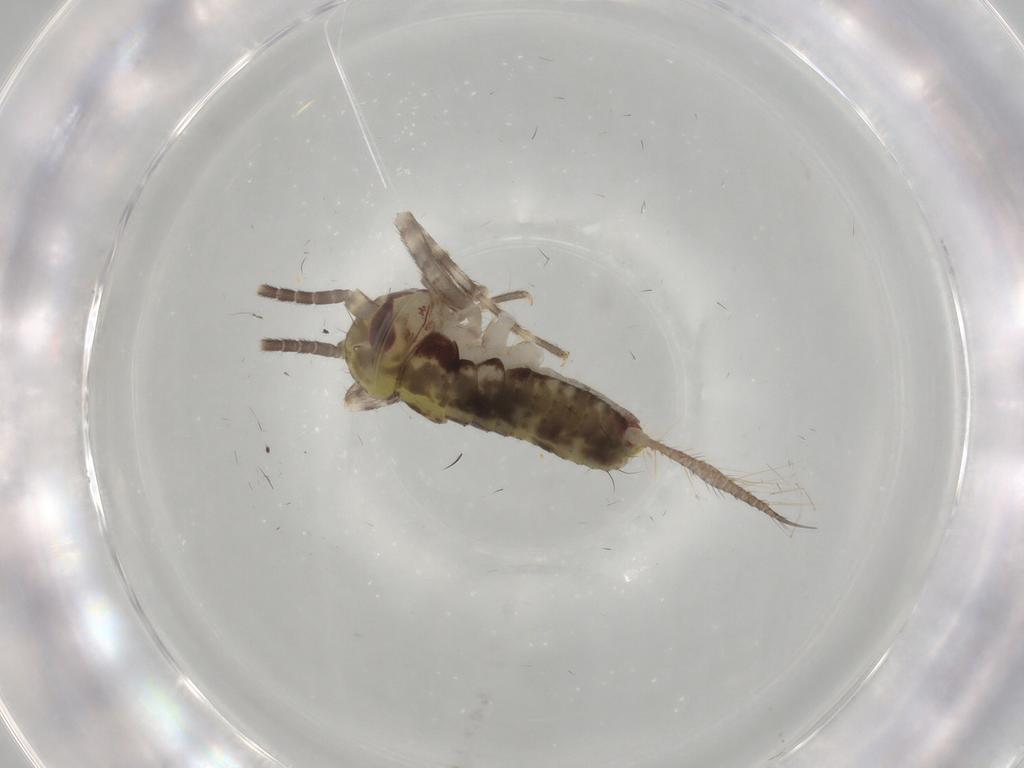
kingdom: Animalia
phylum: Arthropoda
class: Insecta
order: Orthoptera
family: Gryllidae
